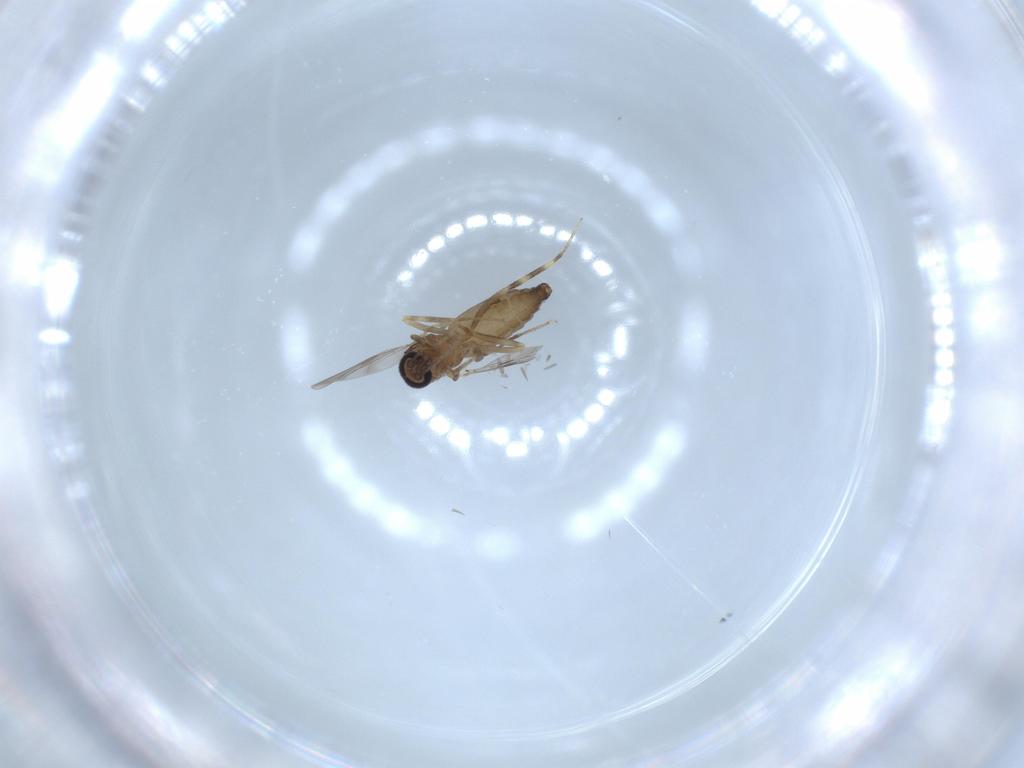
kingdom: Animalia
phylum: Arthropoda
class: Insecta
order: Diptera
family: Ceratopogonidae
